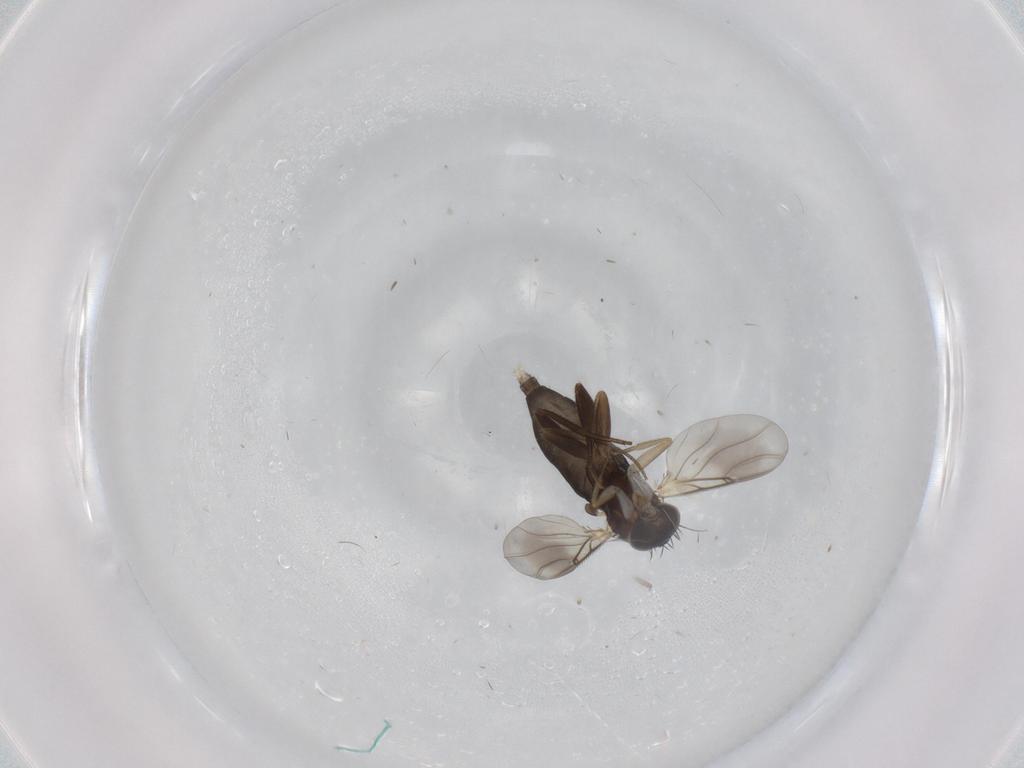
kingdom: Animalia
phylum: Arthropoda
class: Insecta
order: Diptera
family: Phoridae
